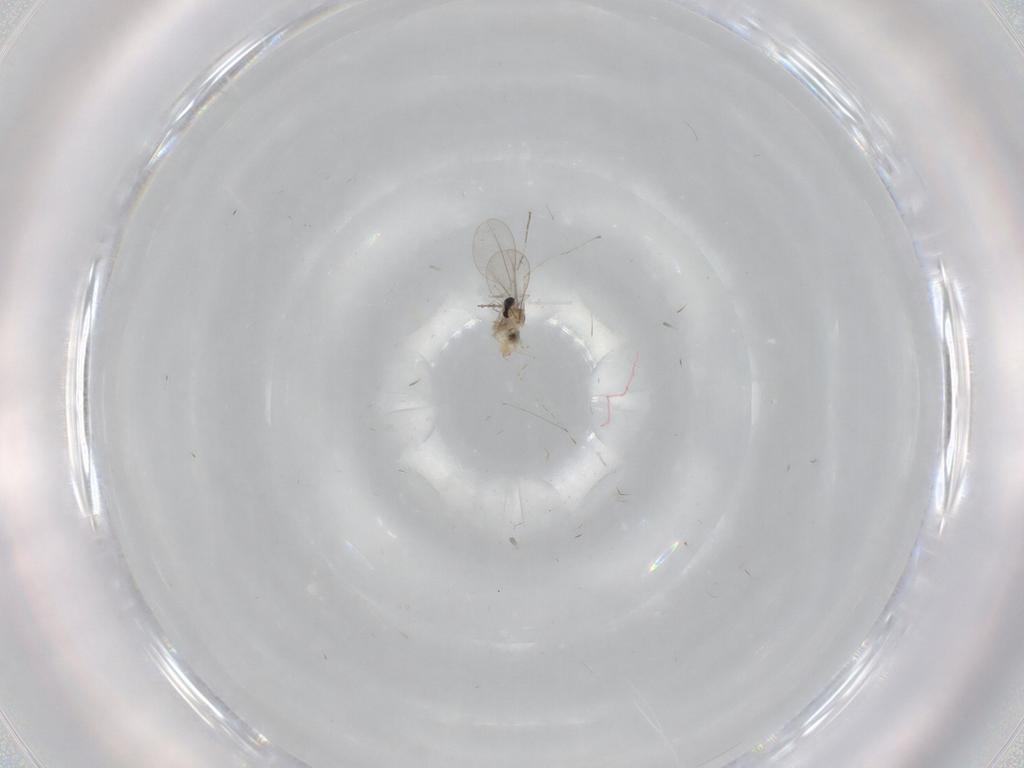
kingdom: Animalia
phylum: Arthropoda
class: Insecta
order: Diptera
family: Cecidomyiidae
